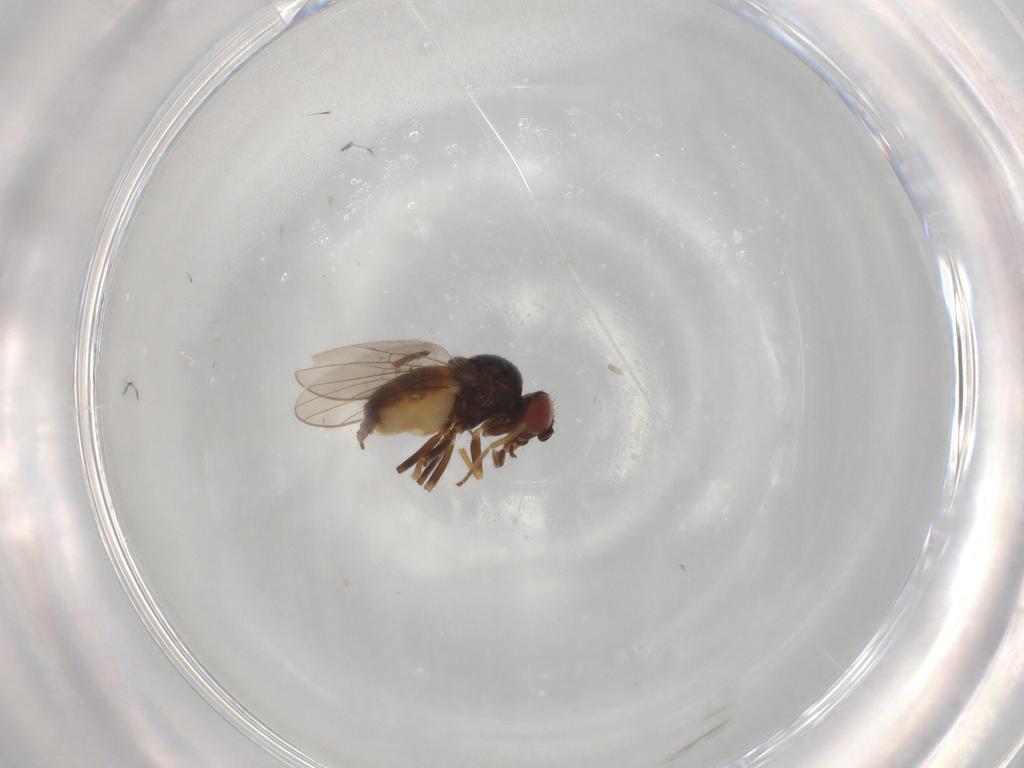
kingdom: Animalia
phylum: Arthropoda
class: Insecta
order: Diptera
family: Chloropidae
